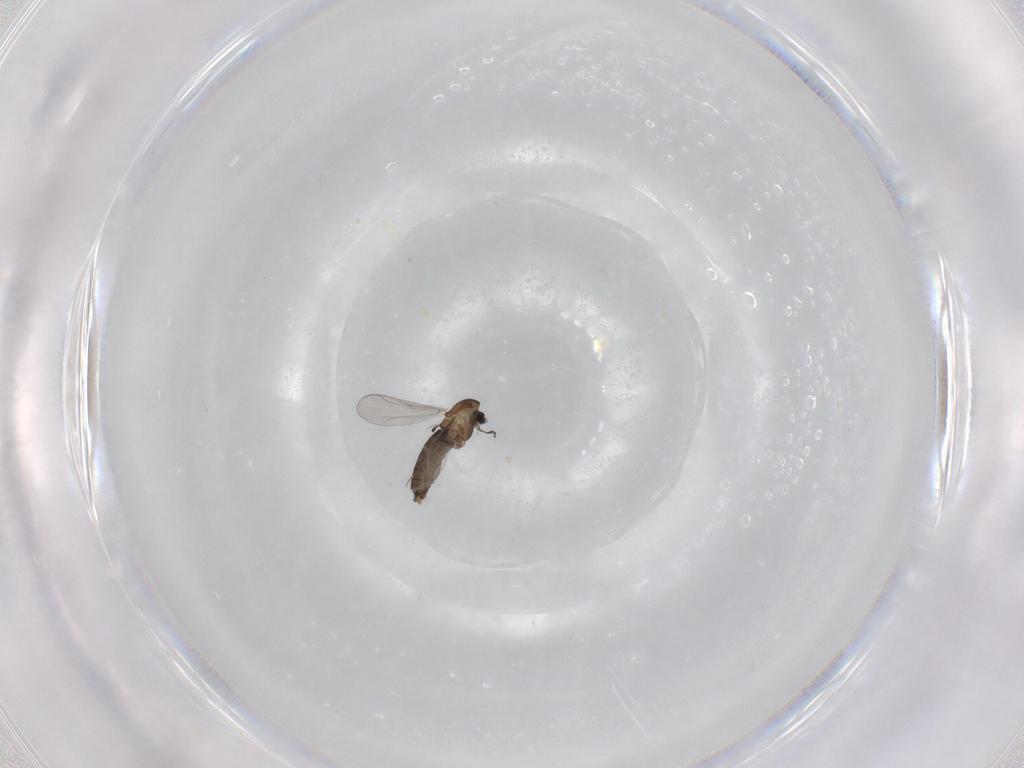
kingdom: Animalia
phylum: Arthropoda
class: Insecta
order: Diptera
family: Chironomidae
